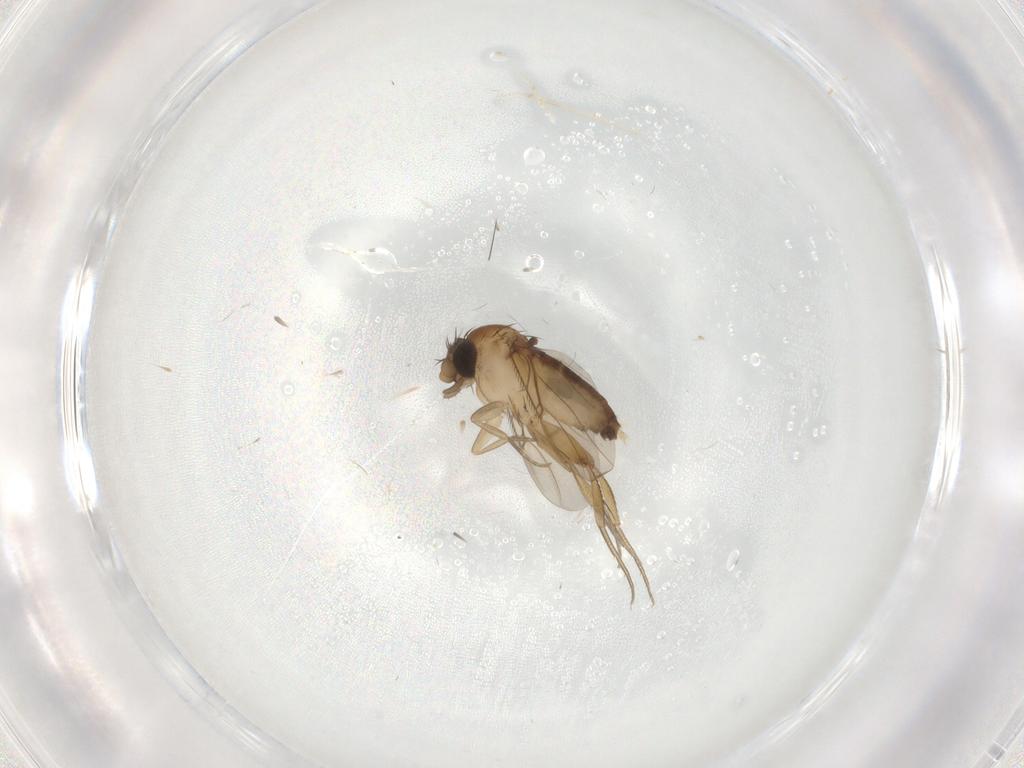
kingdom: Animalia
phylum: Arthropoda
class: Insecta
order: Diptera
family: Phoridae
